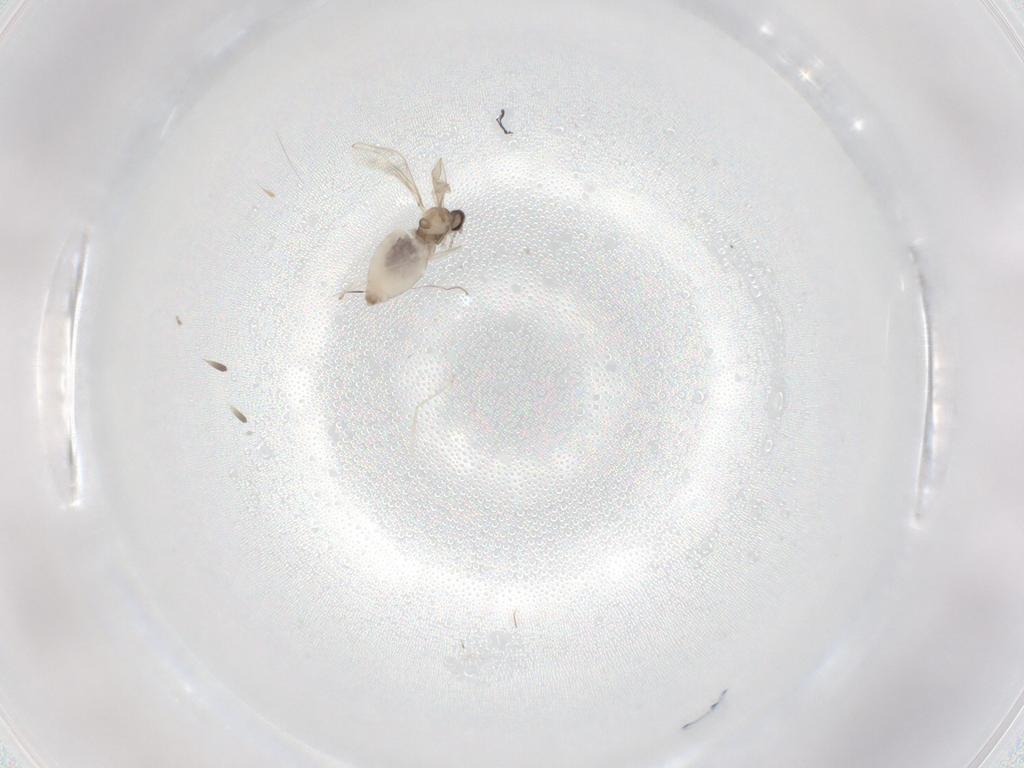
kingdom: Animalia
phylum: Arthropoda
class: Insecta
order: Diptera
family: Cecidomyiidae
